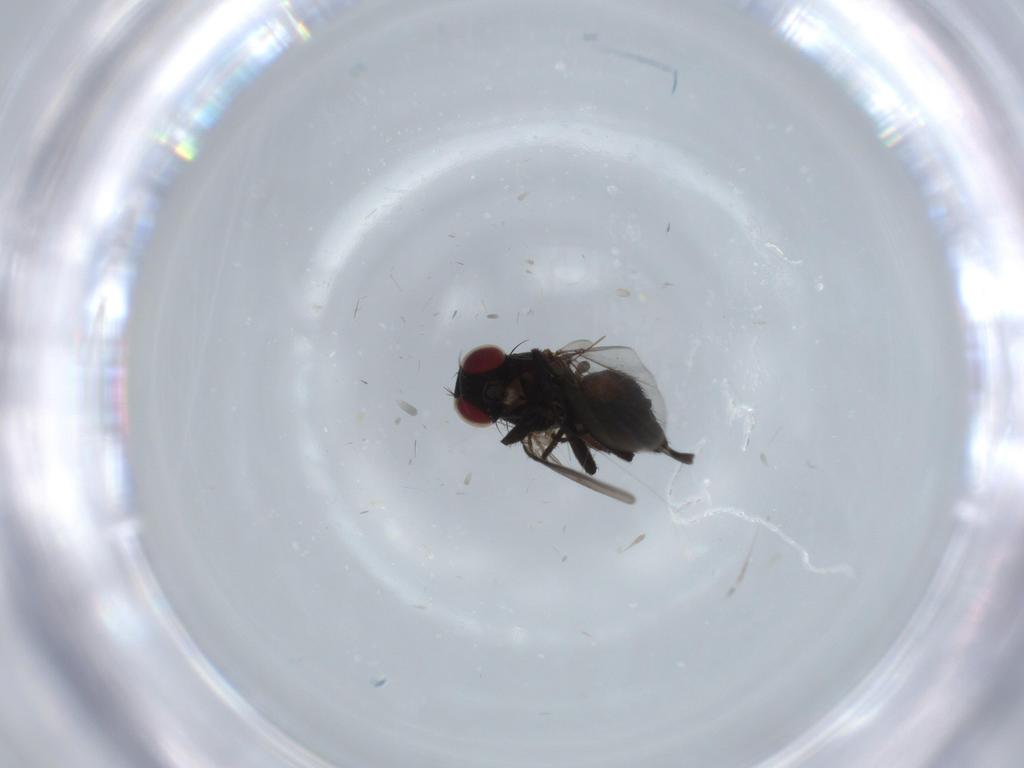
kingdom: Animalia
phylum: Arthropoda
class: Insecta
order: Diptera
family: Agromyzidae
